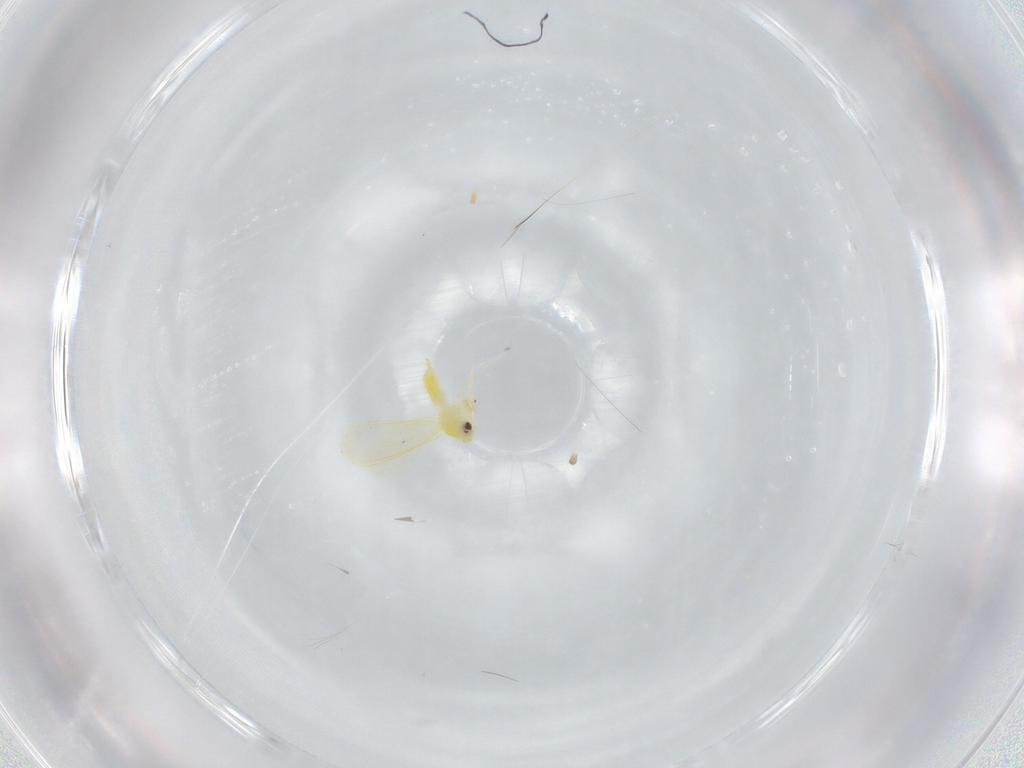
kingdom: Animalia
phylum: Arthropoda
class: Insecta
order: Hemiptera
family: Aleyrodidae
